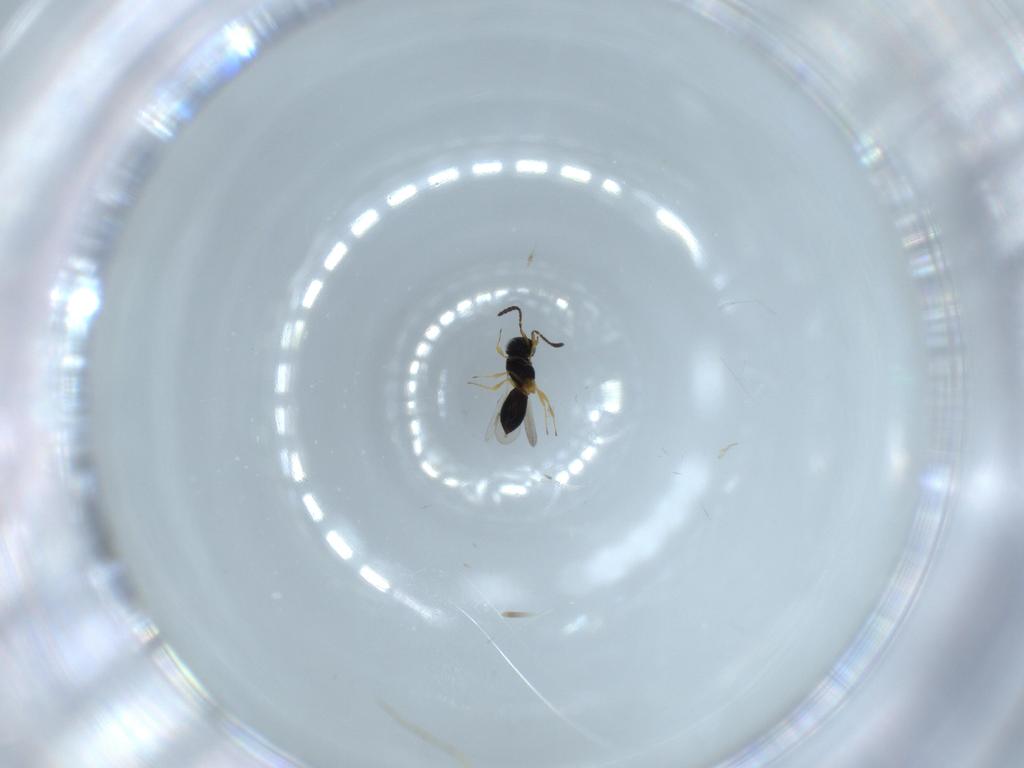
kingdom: Animalia
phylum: Arthropoda
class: Insecta
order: Hymenoptera
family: Scelionidae
